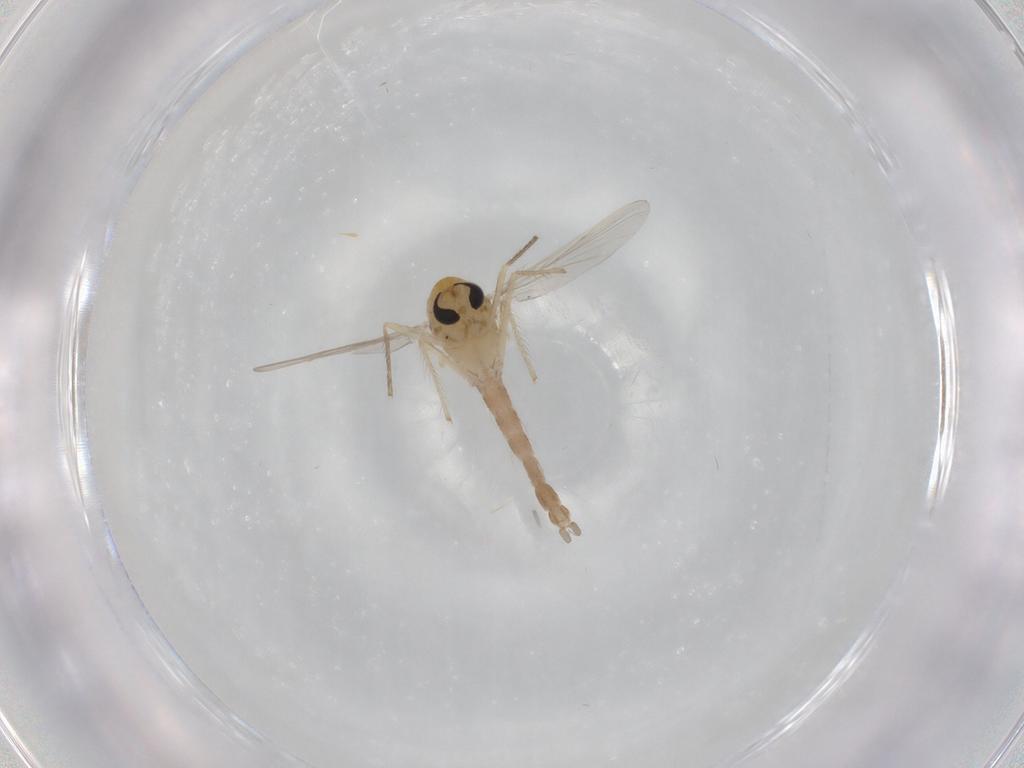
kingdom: Animalia
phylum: Arthropoda
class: Insecta
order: Diptera
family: Chironomidae
